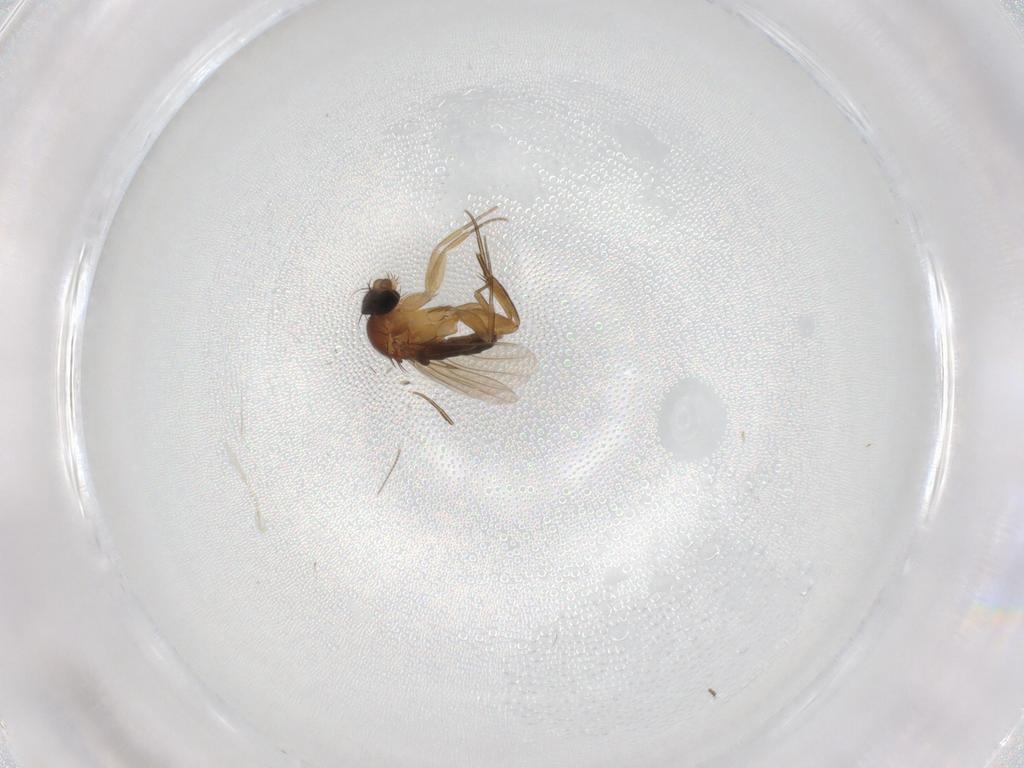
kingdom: Animalia
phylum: Arthropoda
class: Insecta
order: Diptera
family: Phoridae
